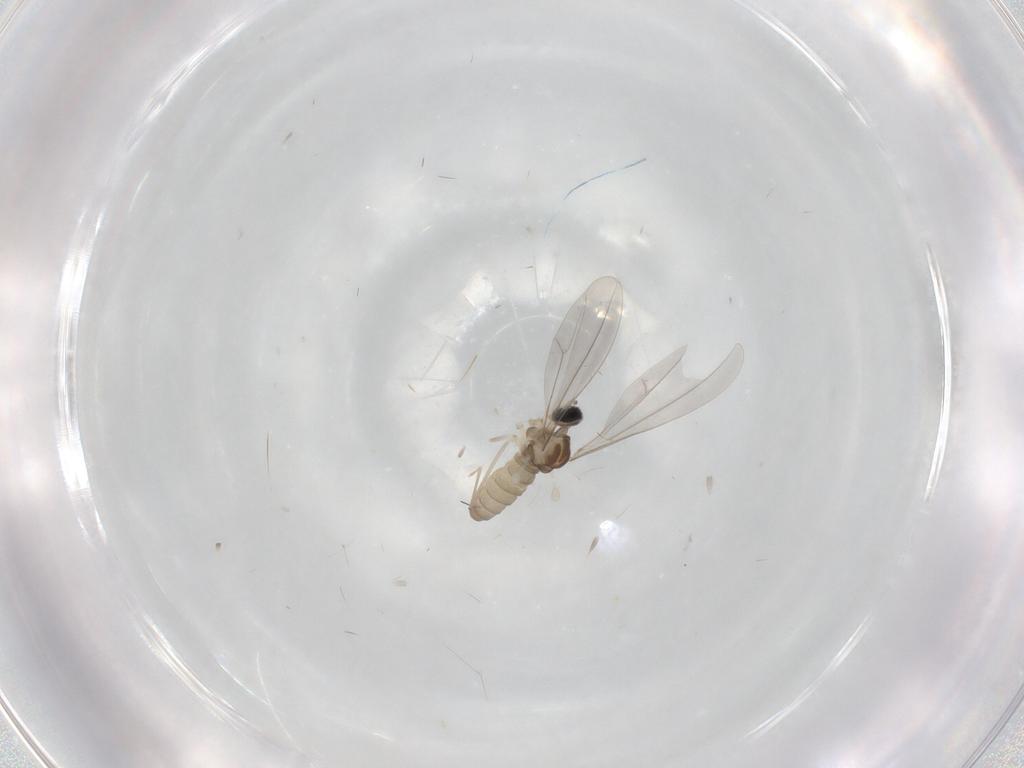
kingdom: Animalia
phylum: Arthropoda
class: Insecta
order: Diptera
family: Cecidomyiidae
